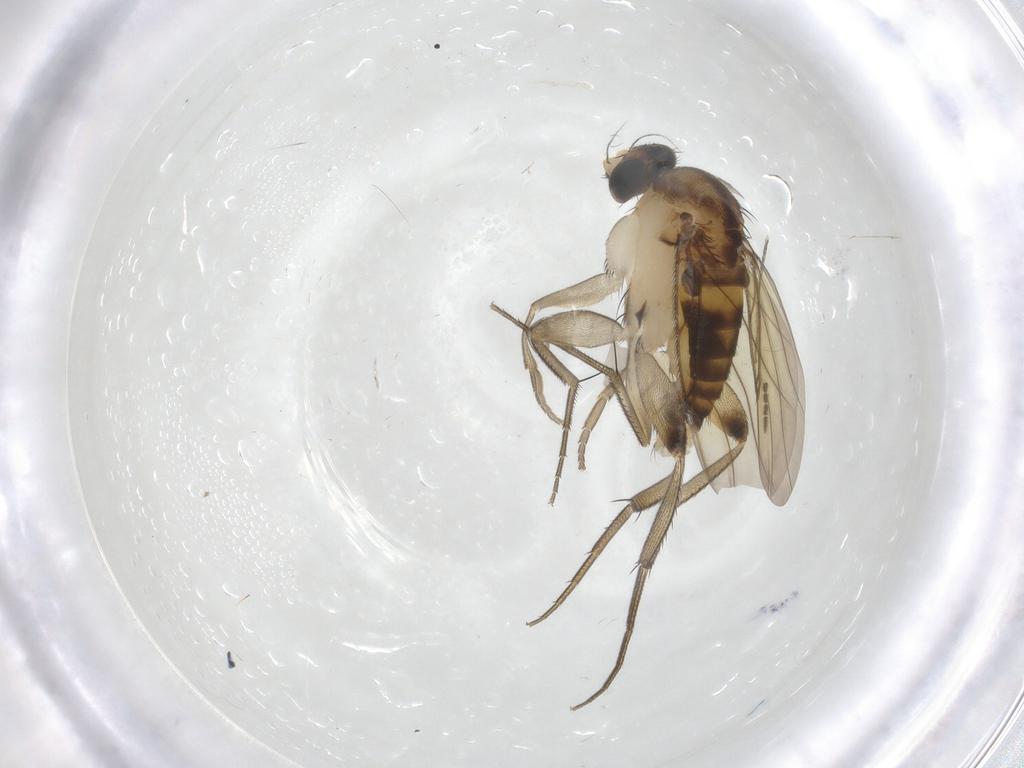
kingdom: Animalia
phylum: Arthropoda
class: Insecta
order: Diptera
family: Phoridae
